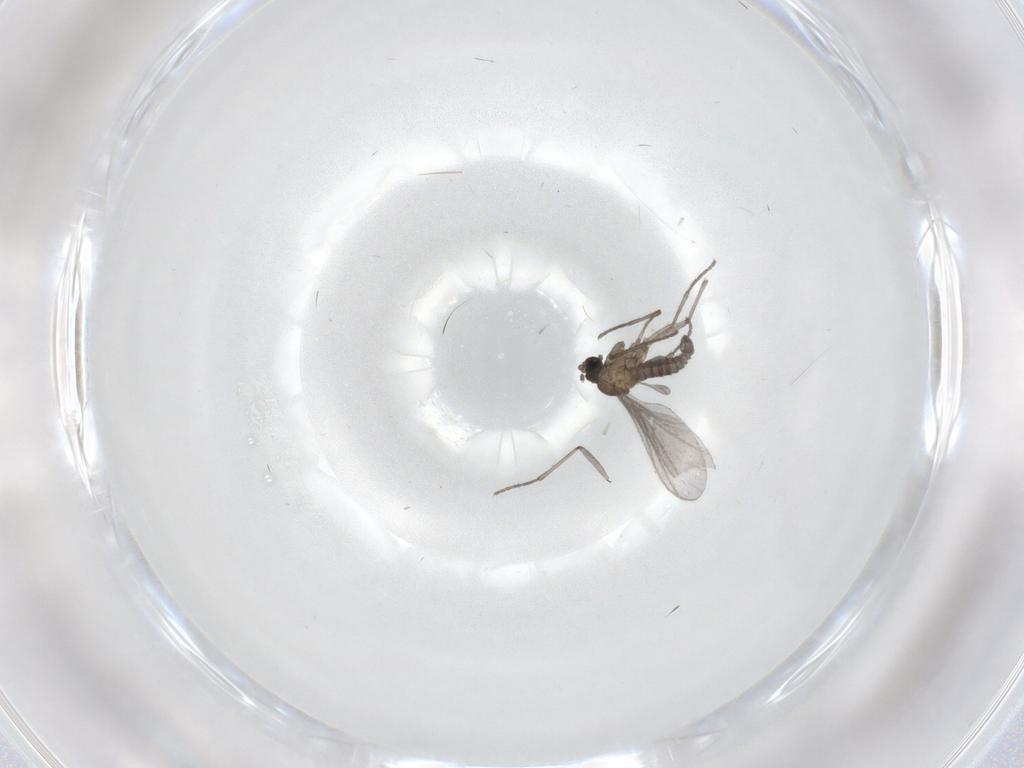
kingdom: Animalia
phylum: Arthropoda
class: Insecta
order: Diptera
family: Sciaridae
